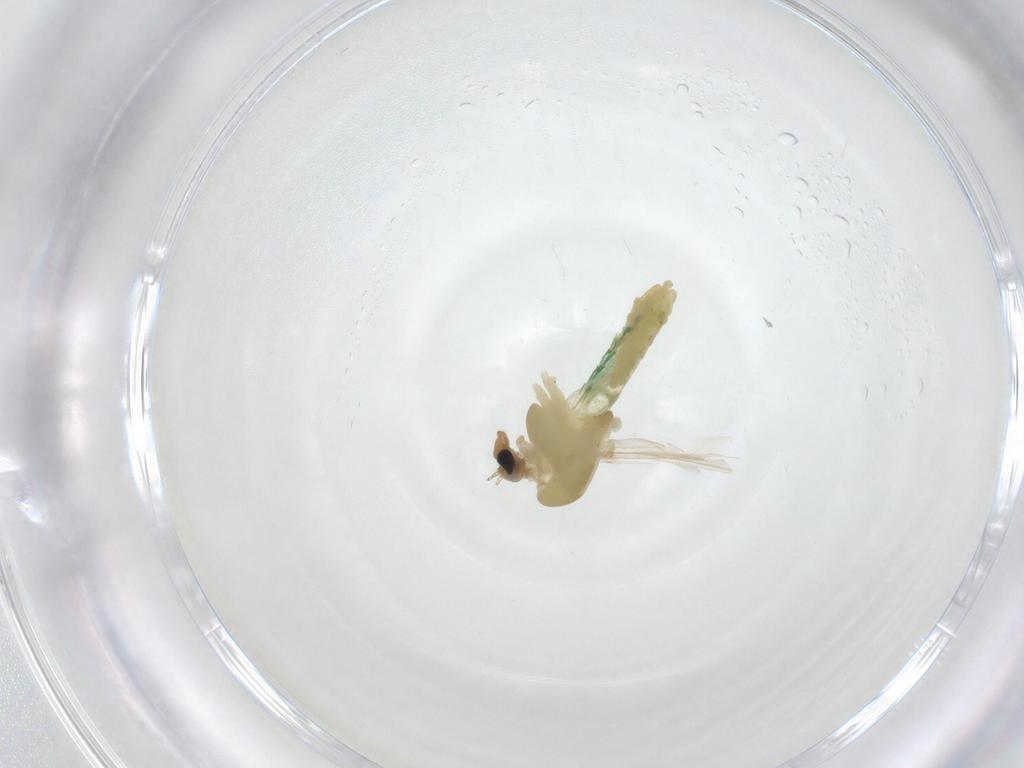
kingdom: Animalia
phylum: Arthropoda
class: Insecta
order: Diptera
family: Chironomidae
